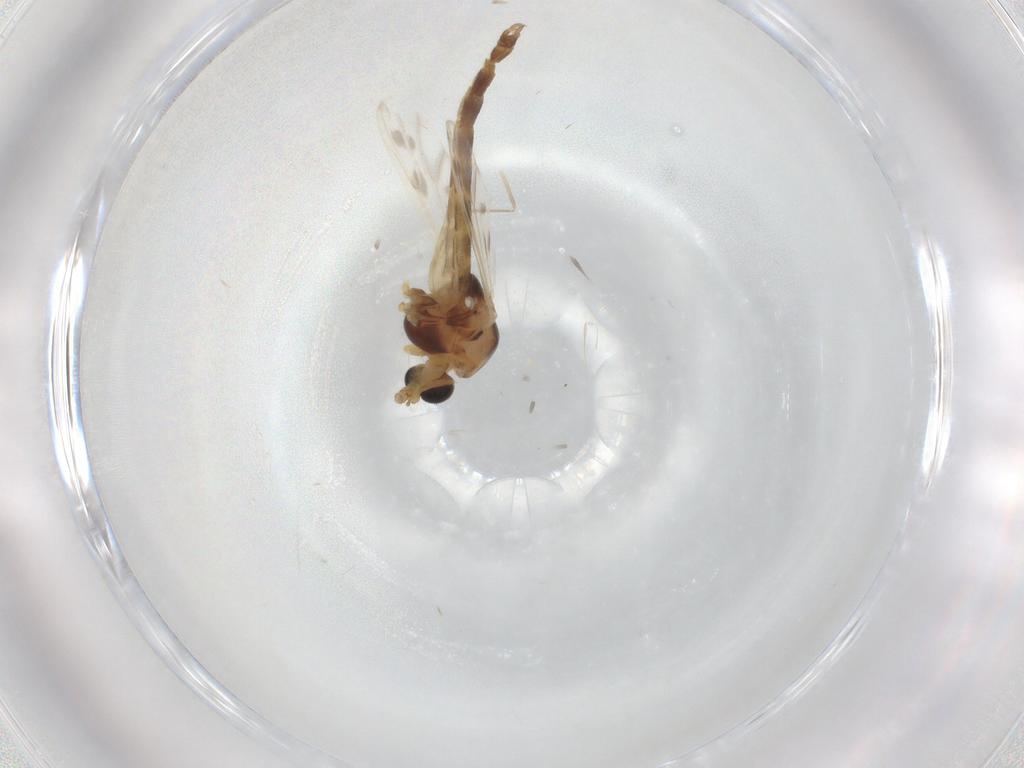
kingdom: Animalia
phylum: Arthropoda
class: Insecta
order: Diptera
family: Chironomidae
